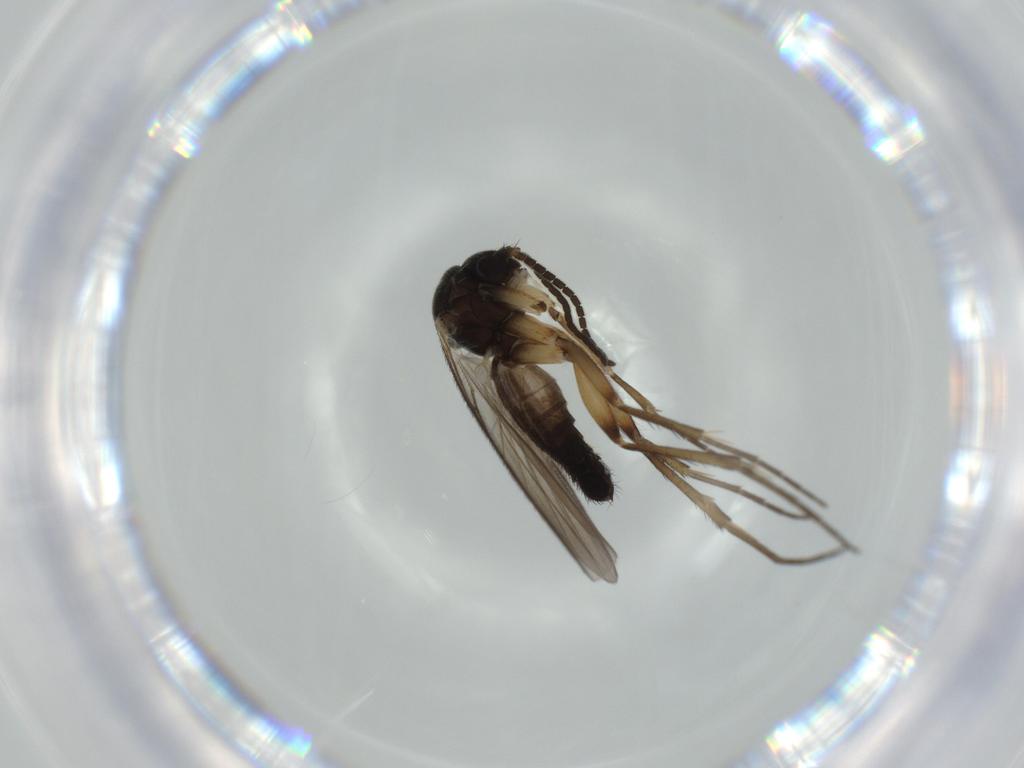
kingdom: Animalia
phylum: Arthropoda
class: Insecta
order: Diptera
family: Mycetophilidae
